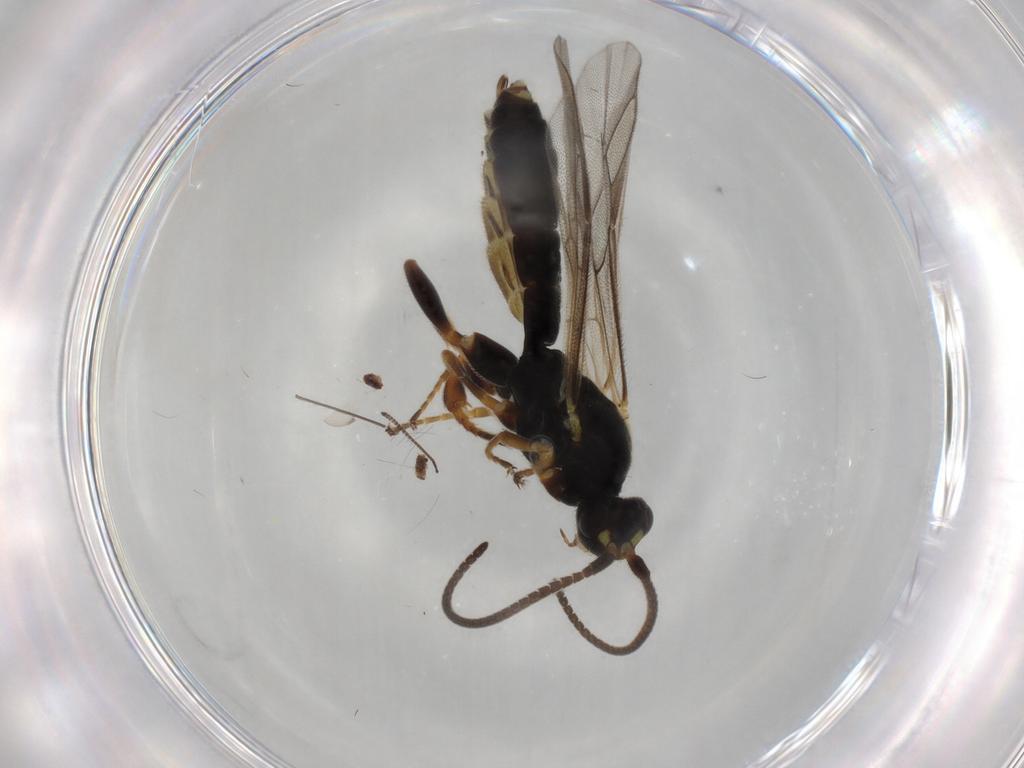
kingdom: Animalia
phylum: Arthropoda
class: Insecta
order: Hymenoptera
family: Ichneumonidae
